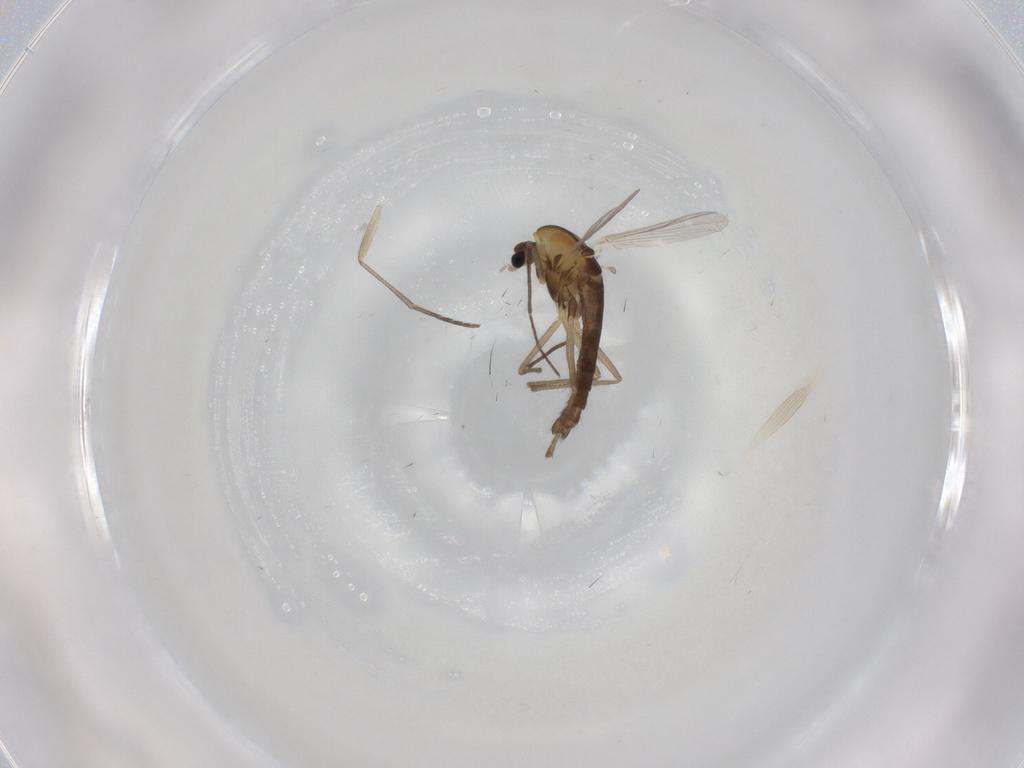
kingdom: Animalia
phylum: Arthropoda
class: Insecta
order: Diptera
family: Chironomidae
